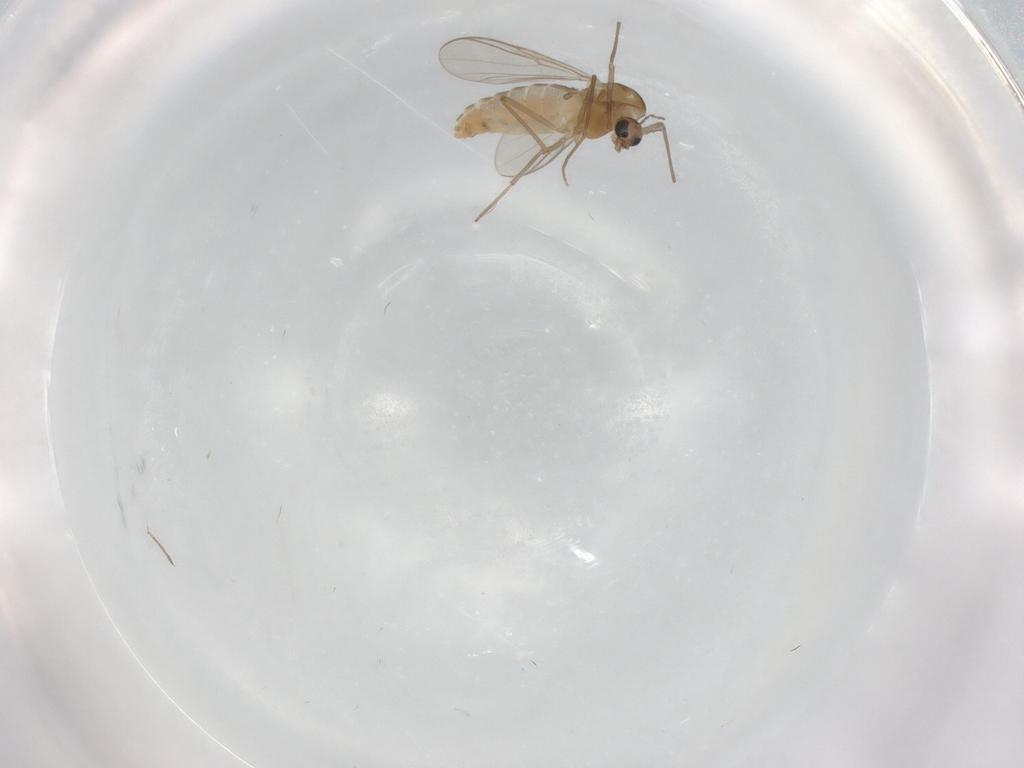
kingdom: Animalia
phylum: Arthropoda
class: Insecta
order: Diptera
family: Chironomidae
